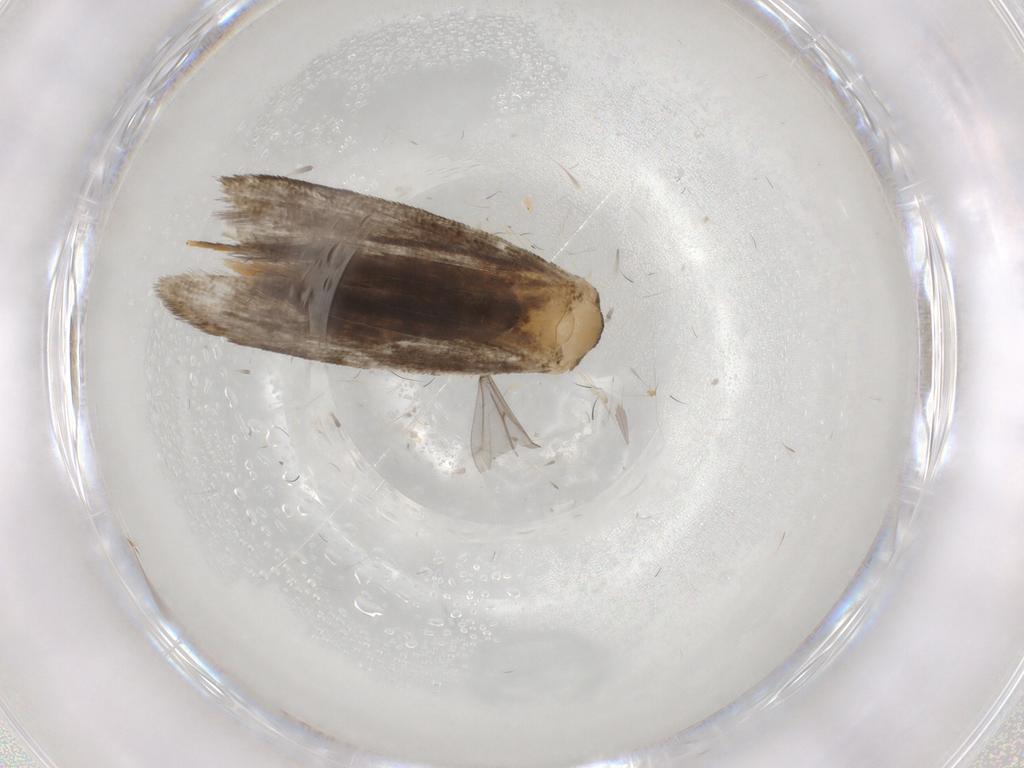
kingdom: Animalia
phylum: Arthropoda
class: Insecta
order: Lepidoptera
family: Tineidae
